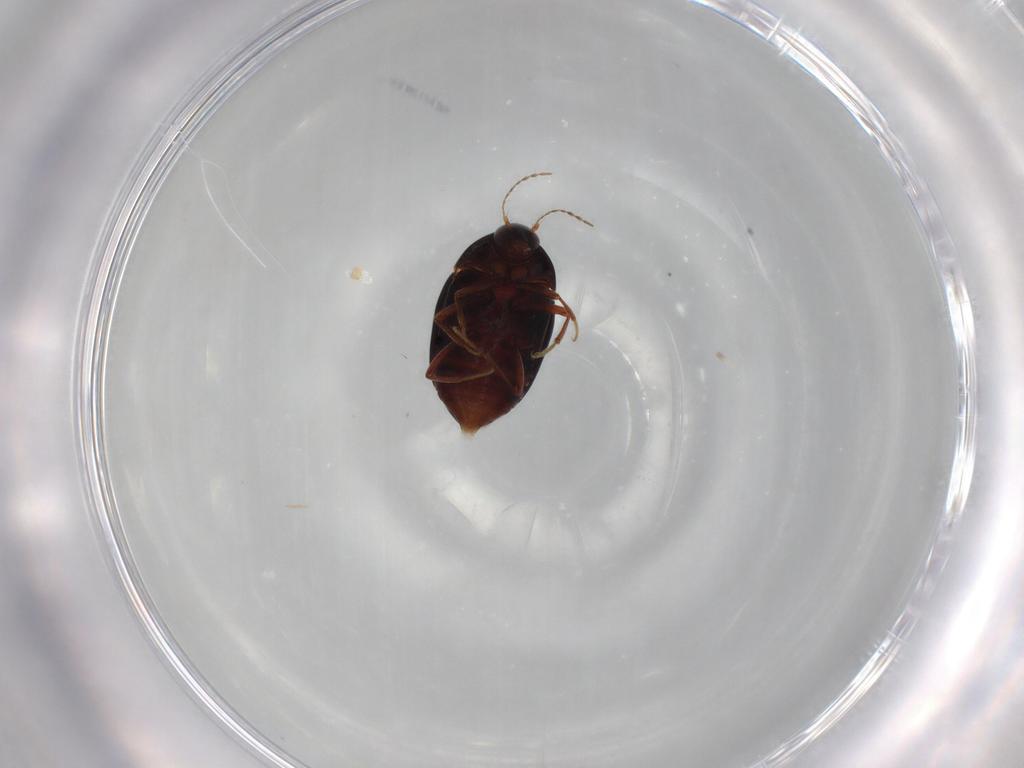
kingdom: Animalia
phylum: Arthropoda
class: Insecta
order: Coleoptera
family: Staphylinidae
